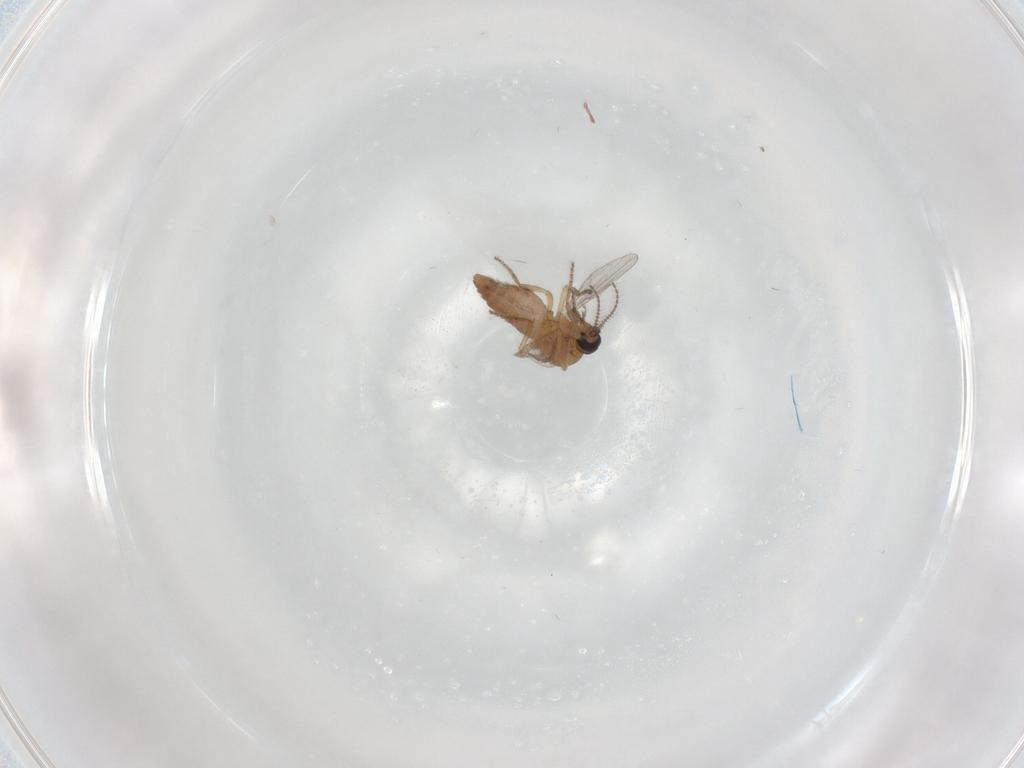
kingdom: Animalia
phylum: Arthropoda
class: Insecta
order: Diptera
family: Ceratopogonidae
